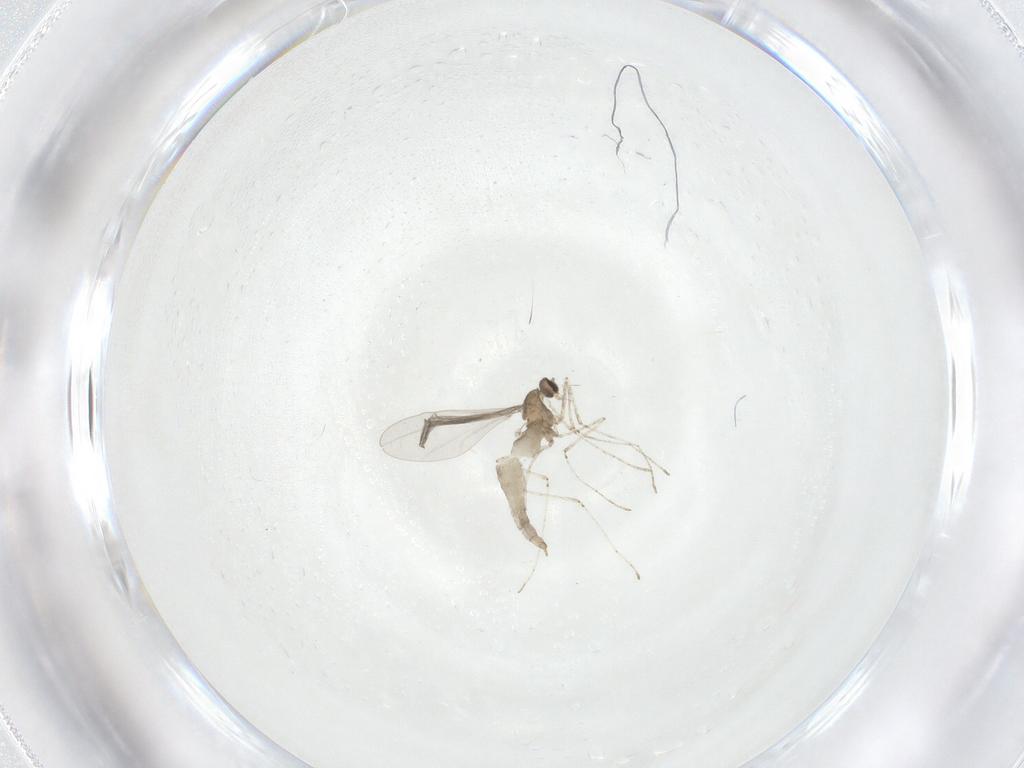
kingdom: Animalia
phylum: Arthropoda
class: Insecta
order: Diptera
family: Cecidomyiidae
